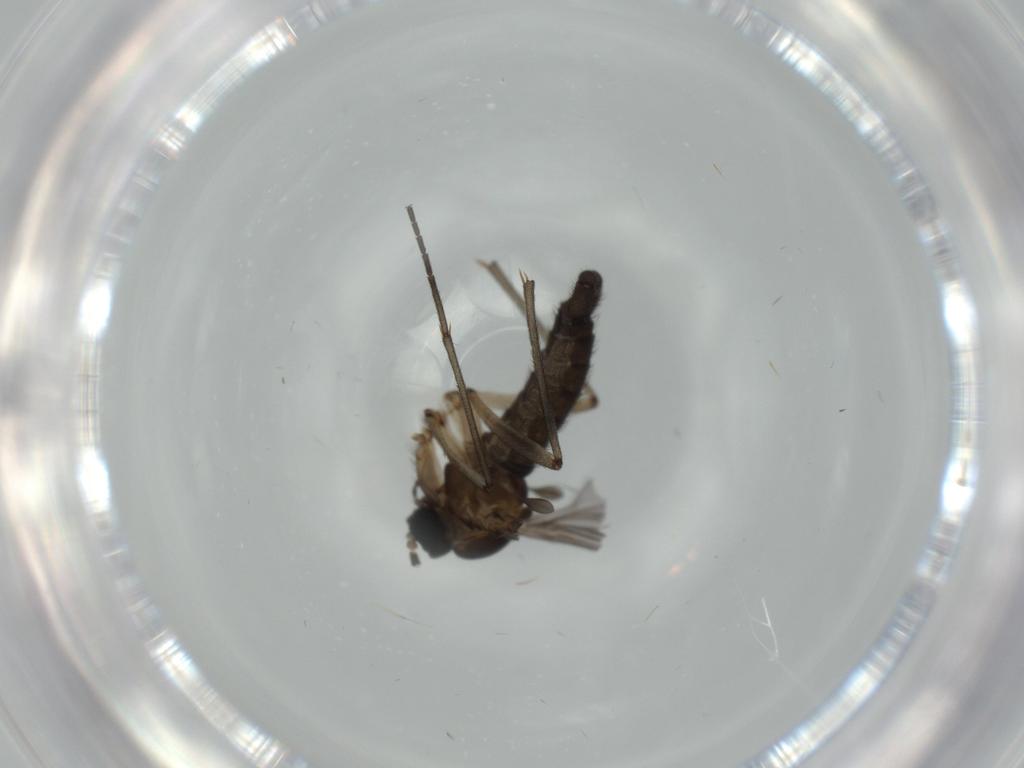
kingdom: Animalia
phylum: Arthropoda
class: Insecta
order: Diptera
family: Sciaridae
